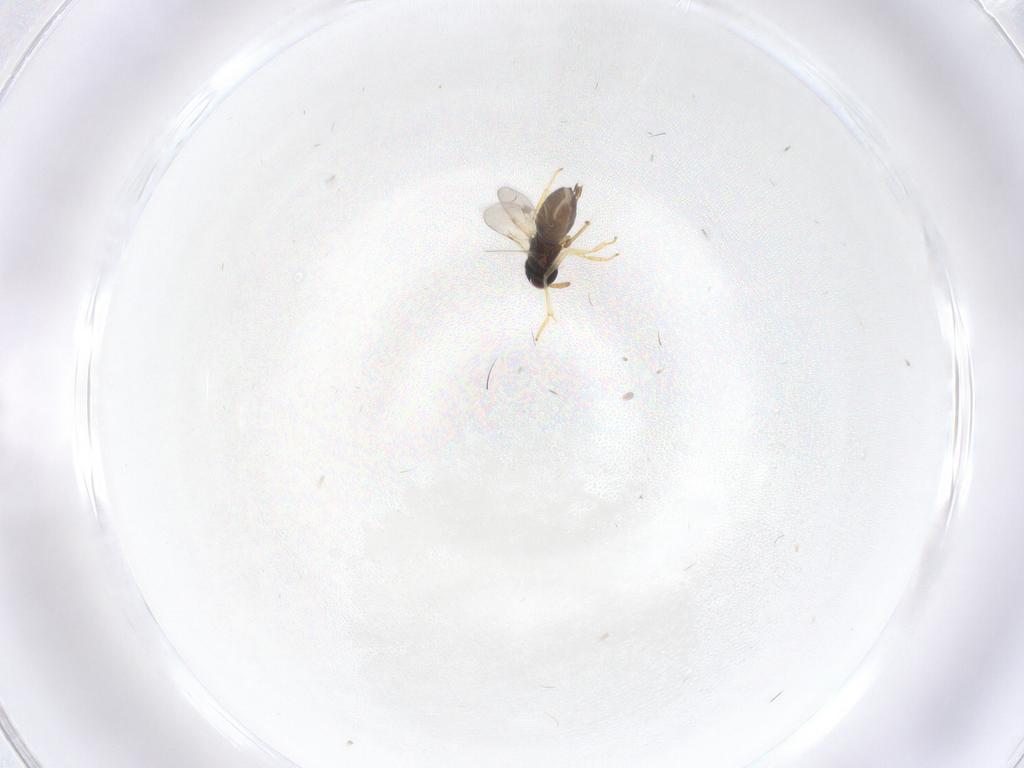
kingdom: Animalia
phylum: Arthropoda
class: Insecta
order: Hymenoptera
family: Encyrtidae
